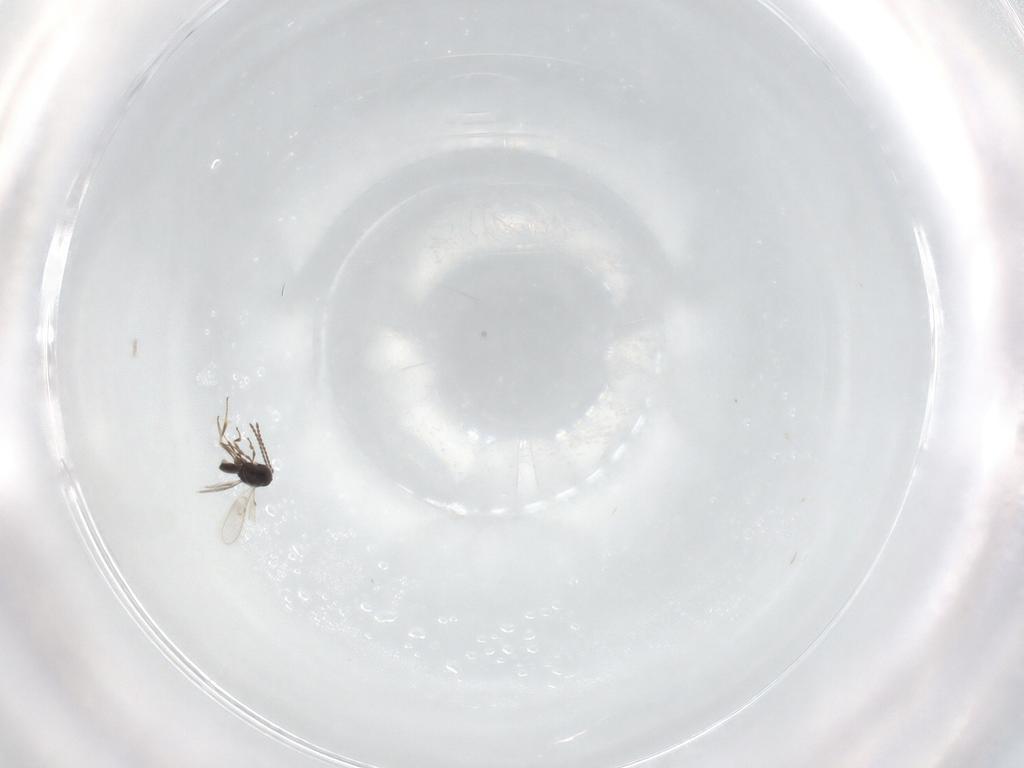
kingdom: Animalia
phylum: Arthropoda
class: Insecta
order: Hymenoptera
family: Scelionidae
